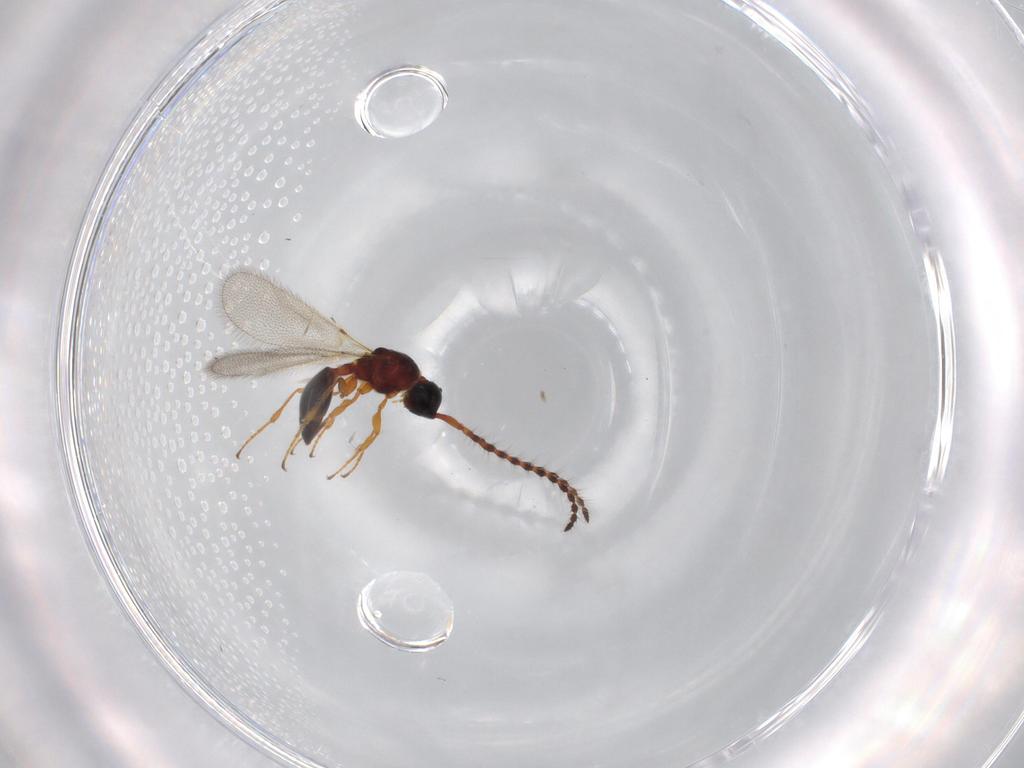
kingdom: Animalia
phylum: Arthropoda
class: Insecta
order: Hymenoptera
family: Diapriidae
